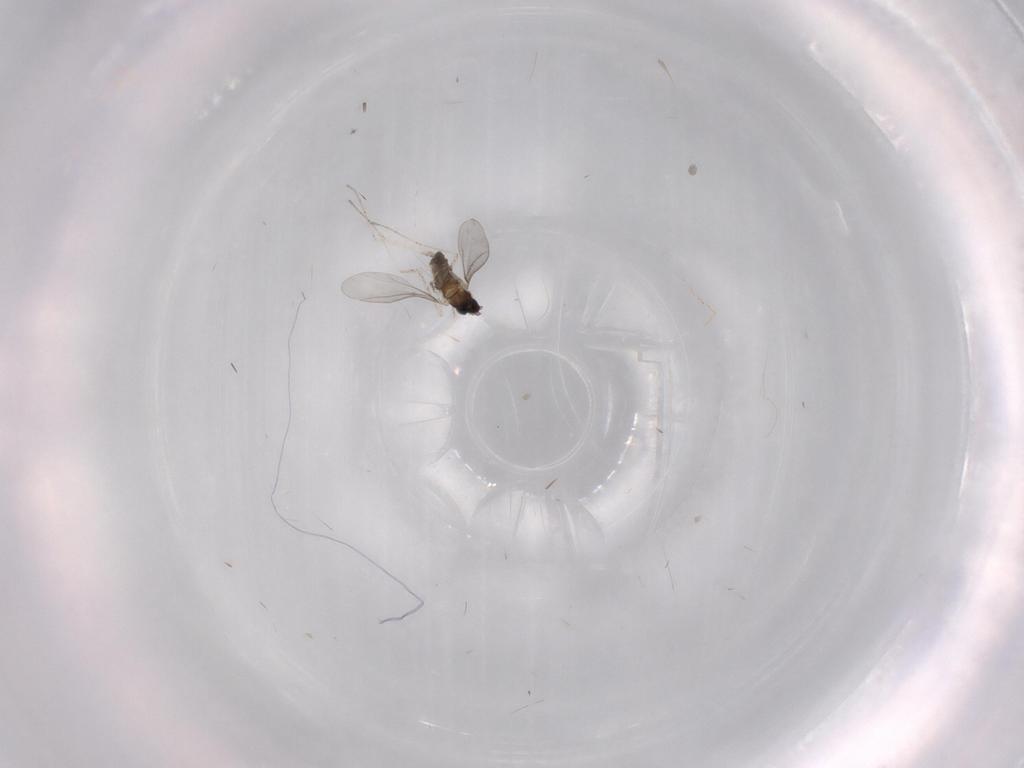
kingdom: Animalia
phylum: Arthropoda
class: Insecta
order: Diptera
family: Cecidomyiidae
